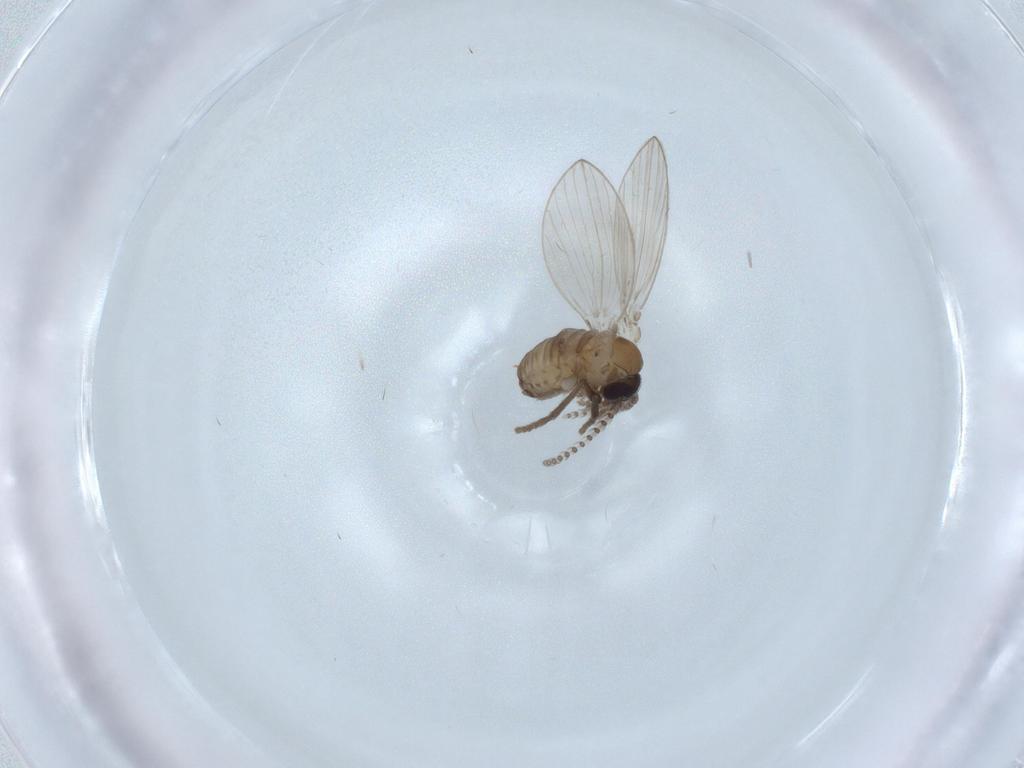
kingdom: Animalia
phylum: Arthropoda
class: Insecta
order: Diptera
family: Psychodidae
